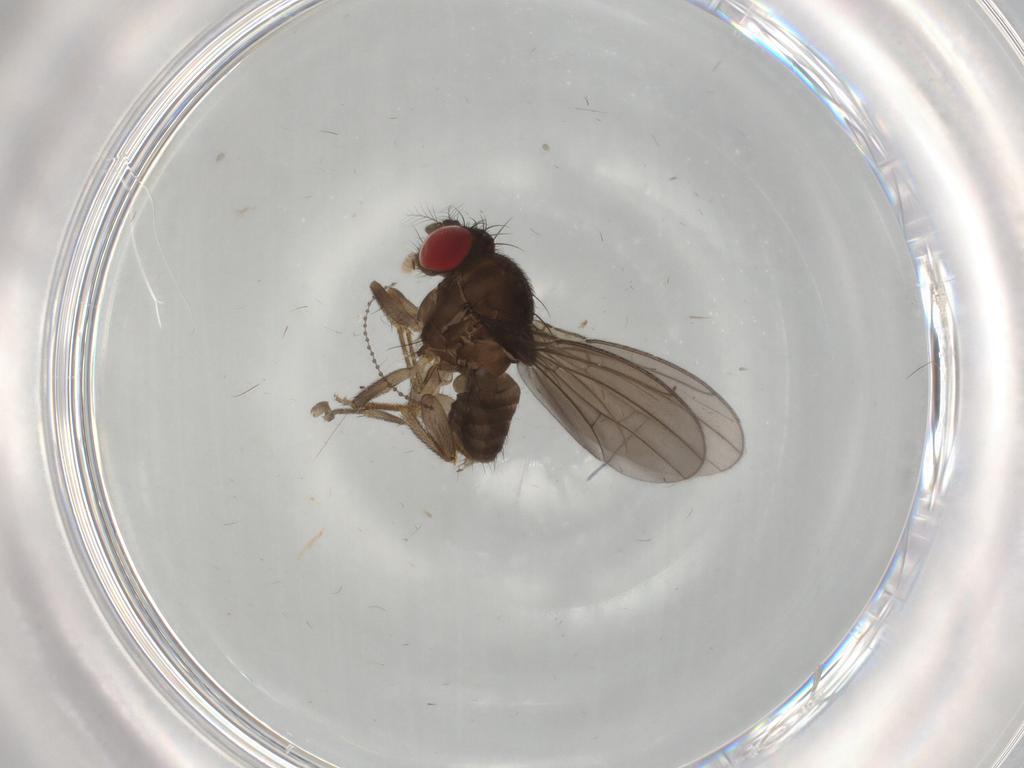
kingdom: Animalia
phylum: Arthropoda
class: Insecta
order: Diptera
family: Drosophilidae
